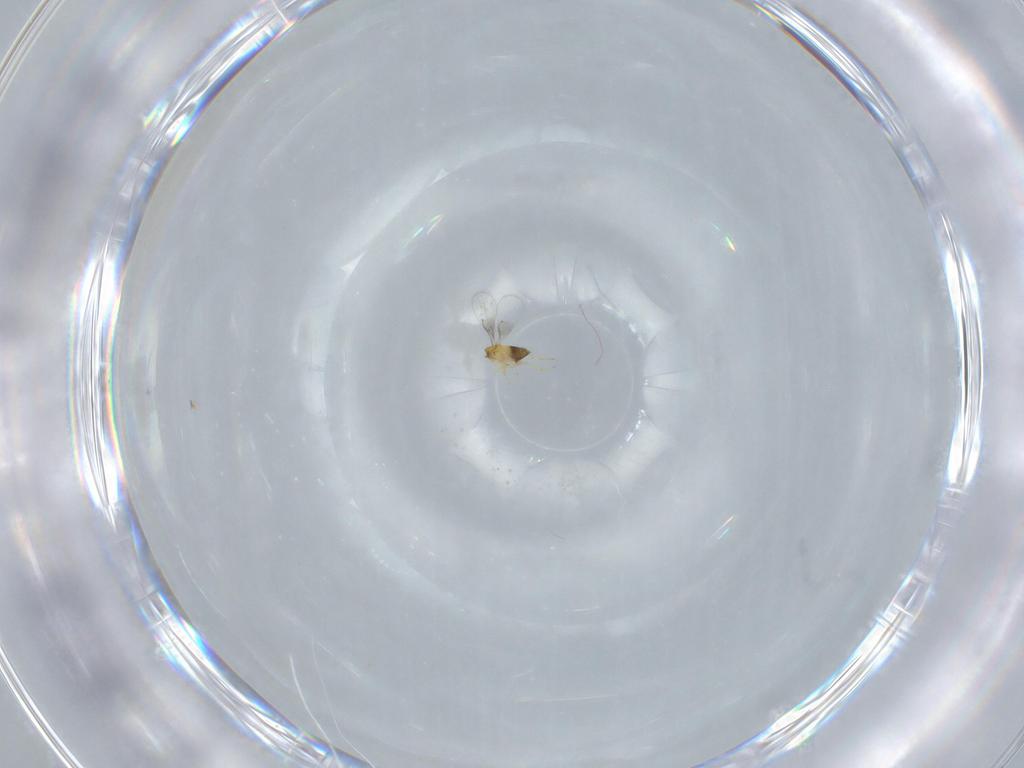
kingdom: Animalia
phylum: Arthropoda
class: Insecta
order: Hymenoptera
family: Trichogrammatidae
